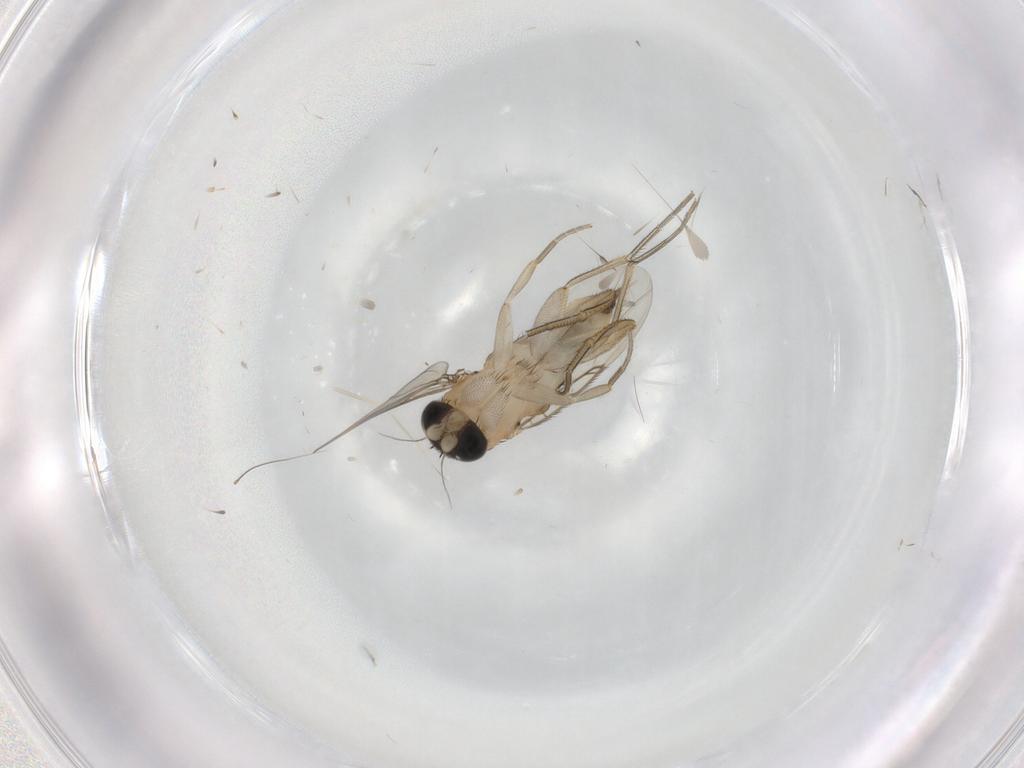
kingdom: Animalia
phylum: Arthropoda
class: Insecta
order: Diptera
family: Phoridae
